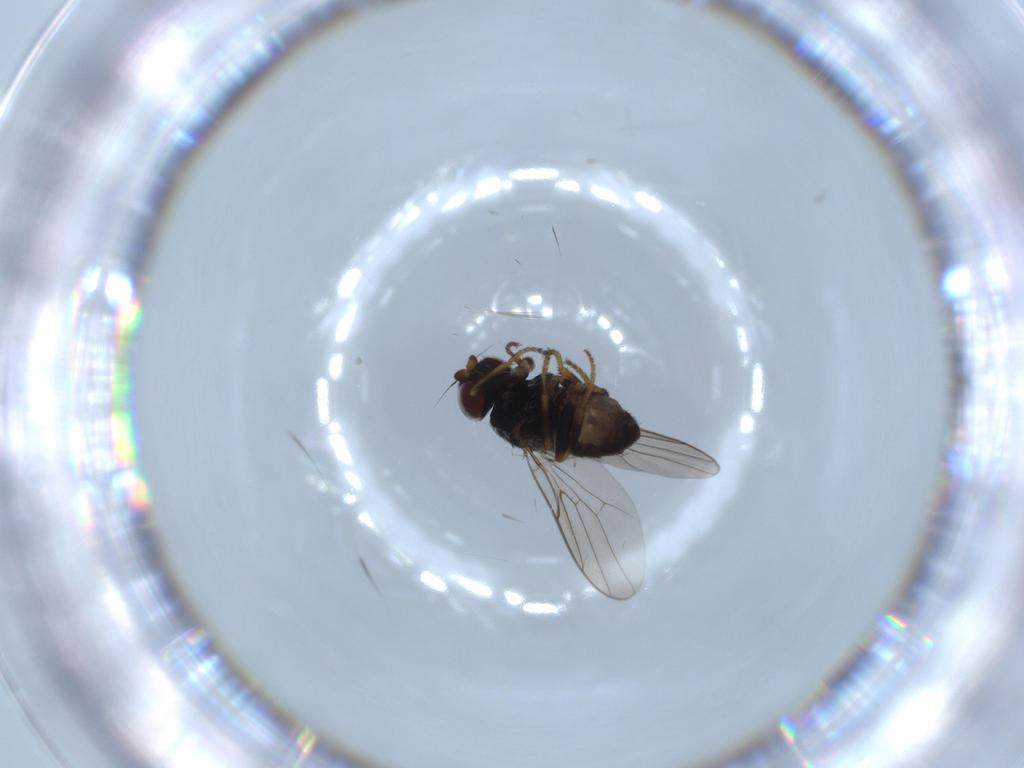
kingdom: Animalia
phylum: Arthropoda
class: Insecta
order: Diptera
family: Chloropidae
